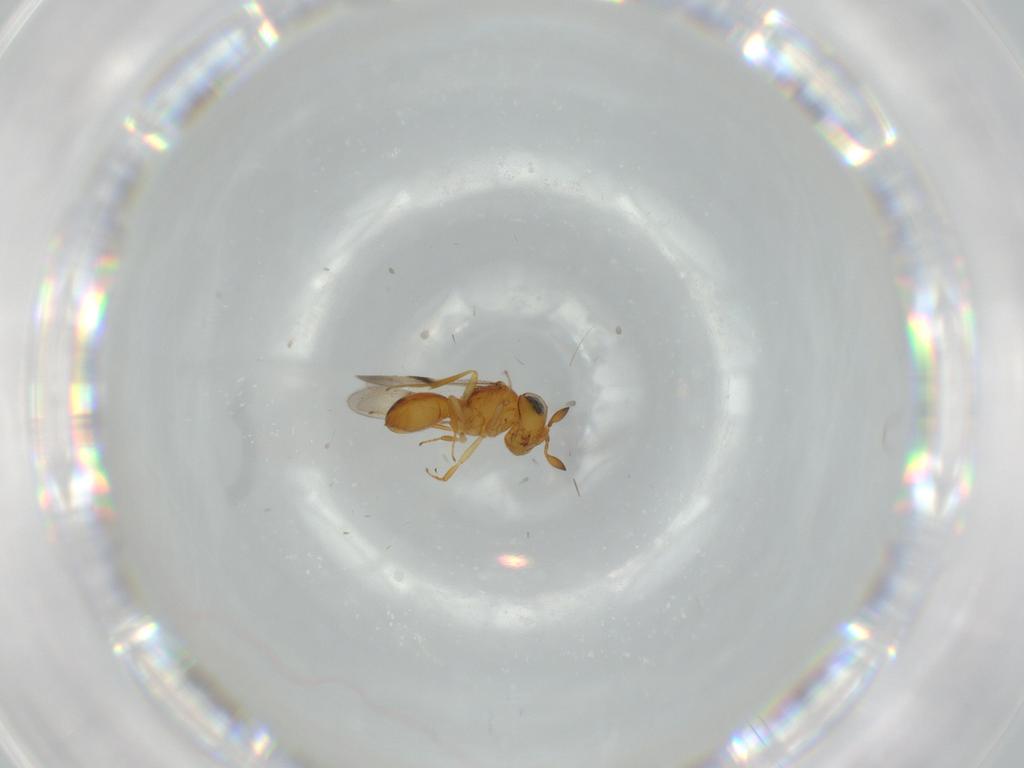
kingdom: Animalia
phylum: Arthropoda
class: Insecta
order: Hymenoptera
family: Scelionidae
